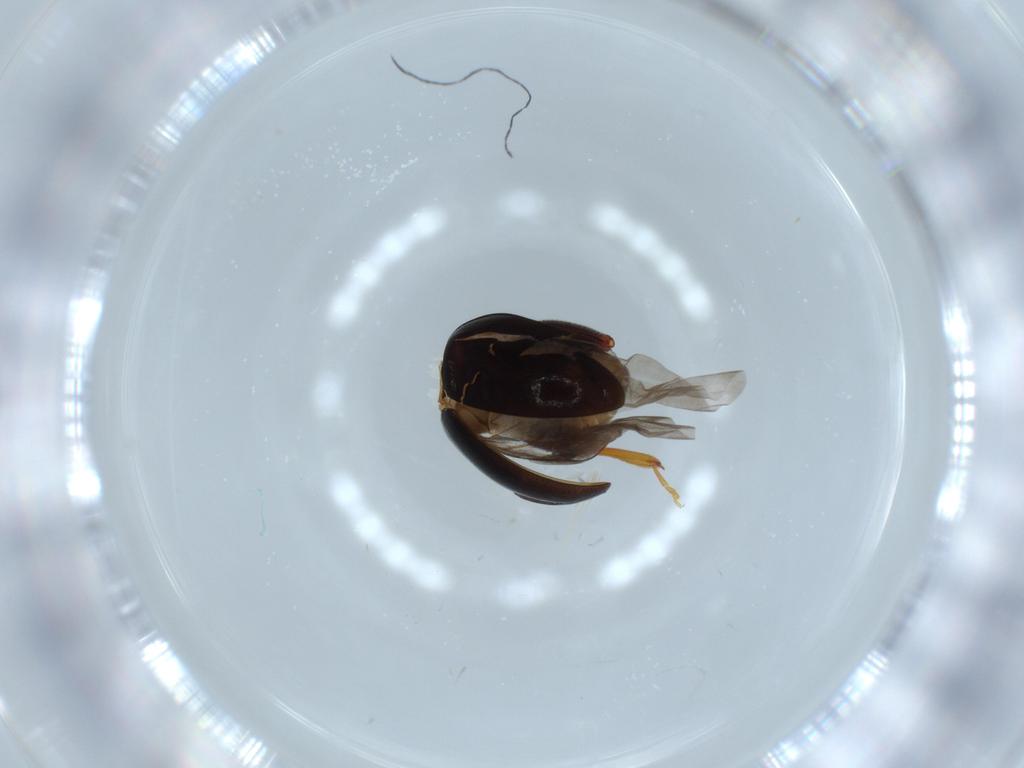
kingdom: Animalia
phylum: Arthropoda
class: Insecta
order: Coleoptera
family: Chrysomelidae
